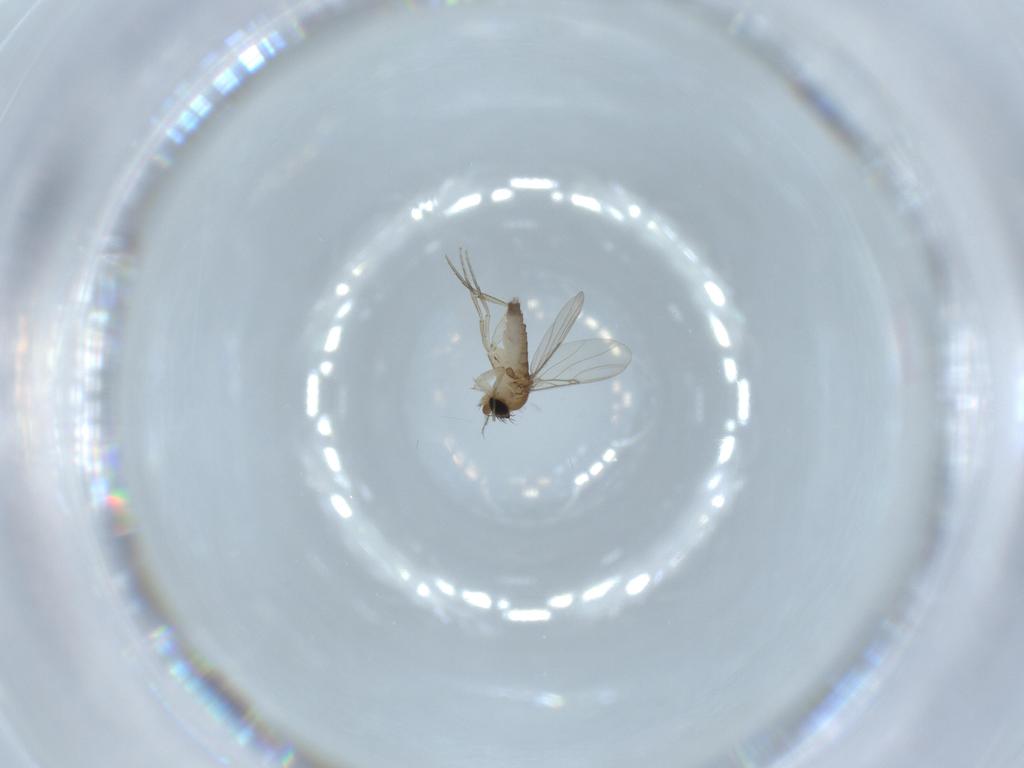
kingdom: Animalia
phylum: Arthropoda
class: Insecta
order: Diptera
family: Phoridae
